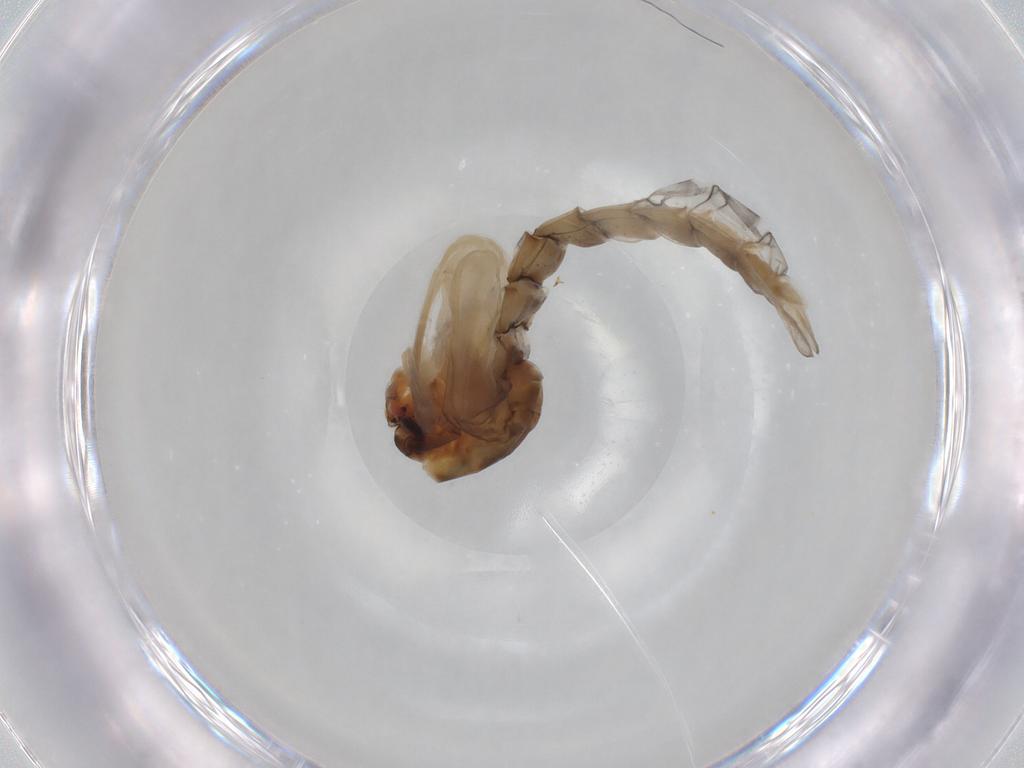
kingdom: Animalia
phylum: Arthropoda
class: Insecta
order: Diptera
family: Chironomidae
